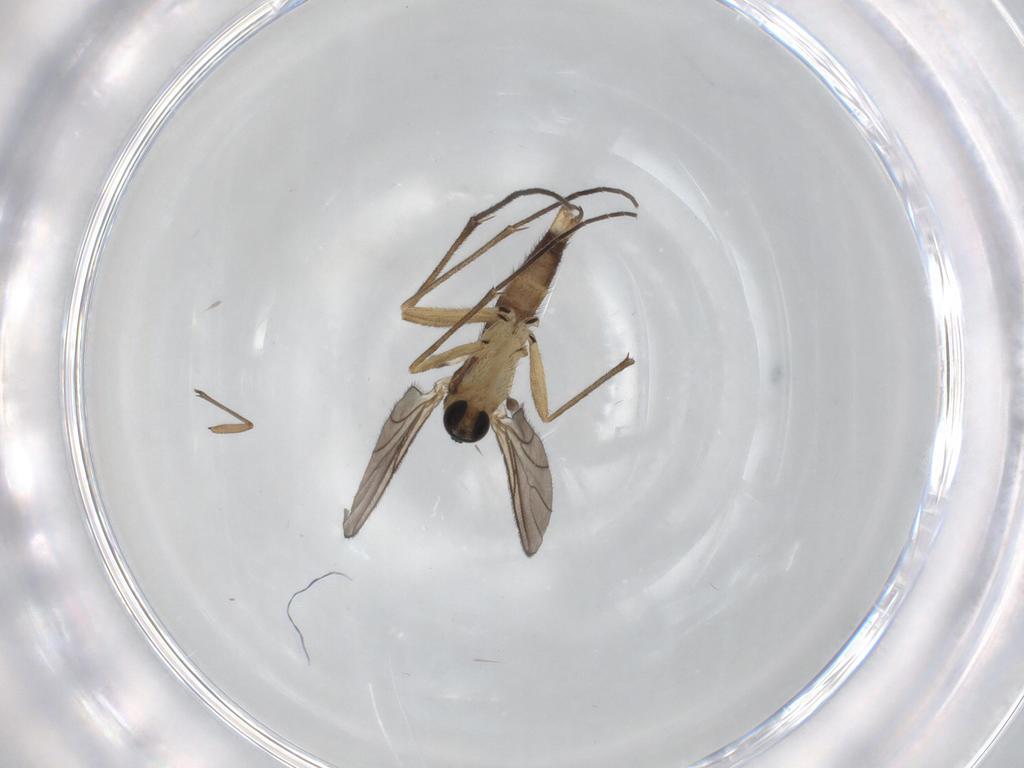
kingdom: Animalia
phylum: Arthropoda
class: Insecta
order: Diptera
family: Sciaridae
